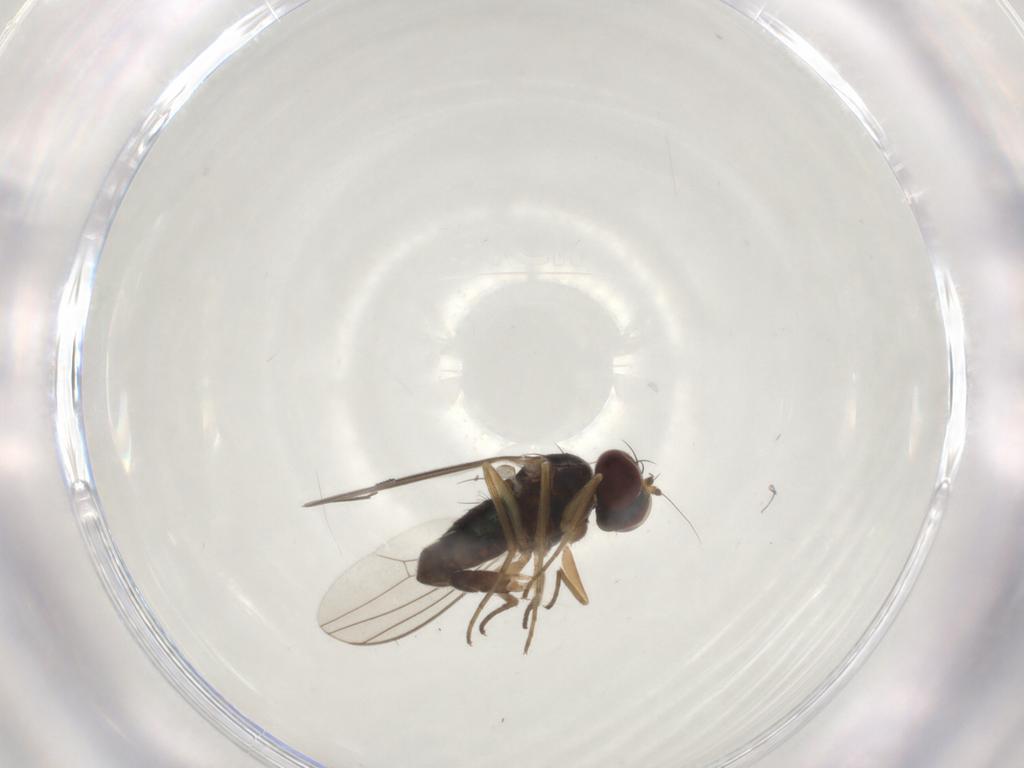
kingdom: Animalia
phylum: Arthropoda
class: Insecta
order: Diptera
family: Dolichopodidae
